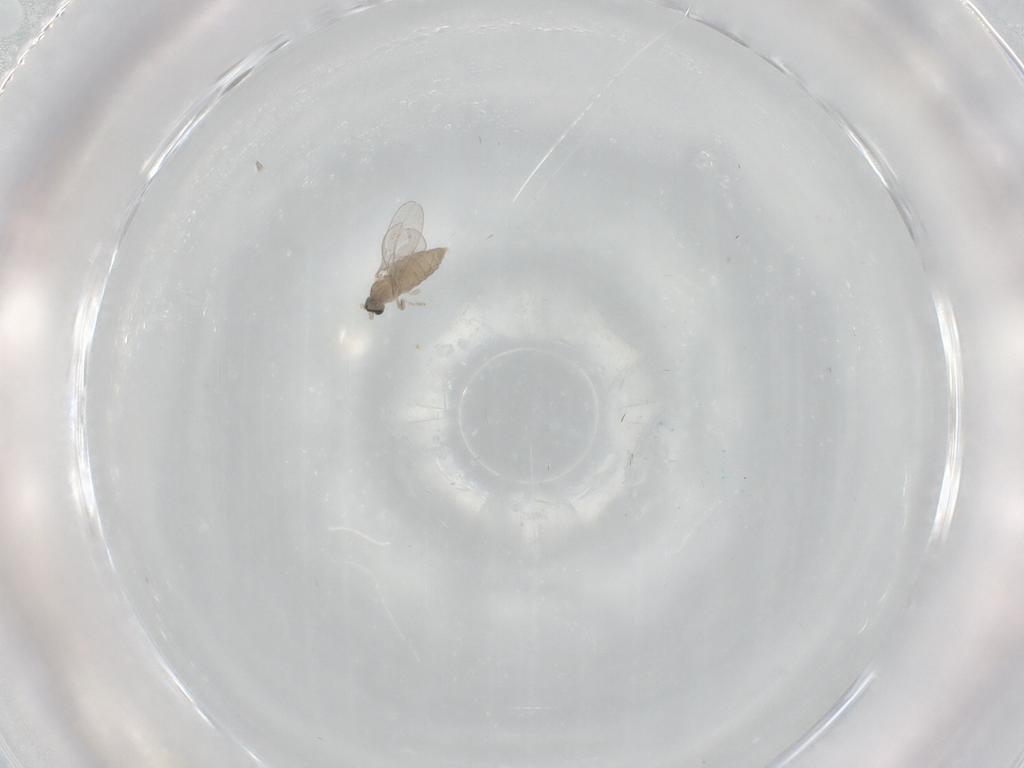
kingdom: Animalia
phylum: Arthropoda
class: Insecta
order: Diptera
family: Cecidomyiidae
